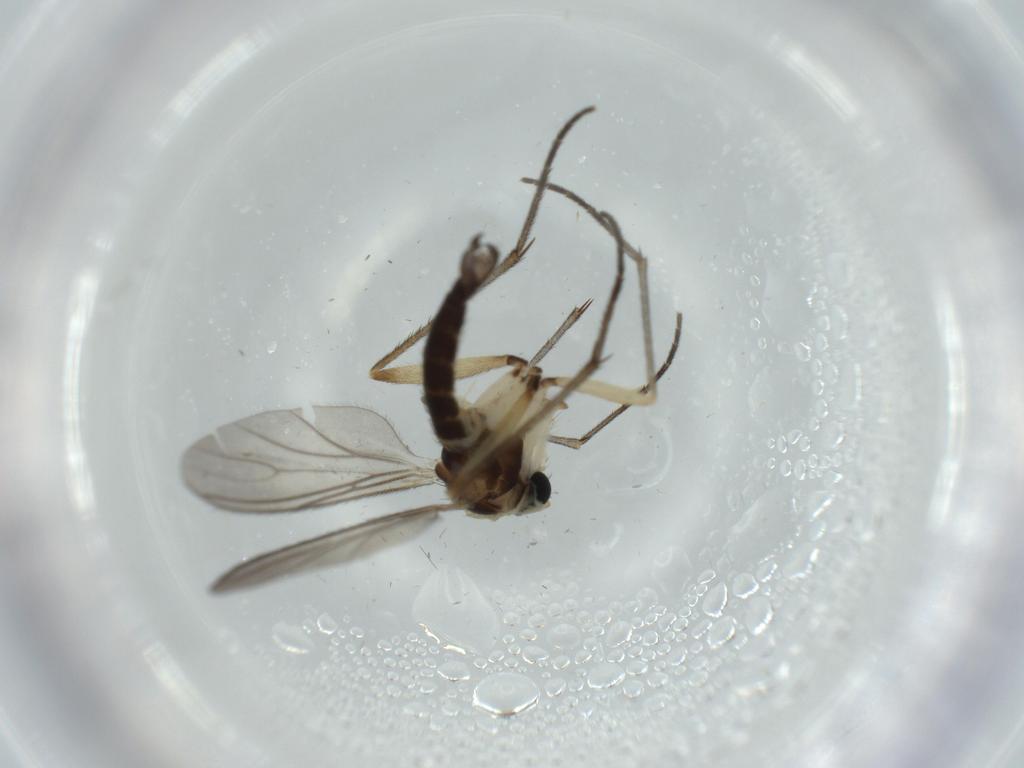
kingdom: Animalia
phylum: Arthropoda
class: Insecta
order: Diptera
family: Sciaridae
